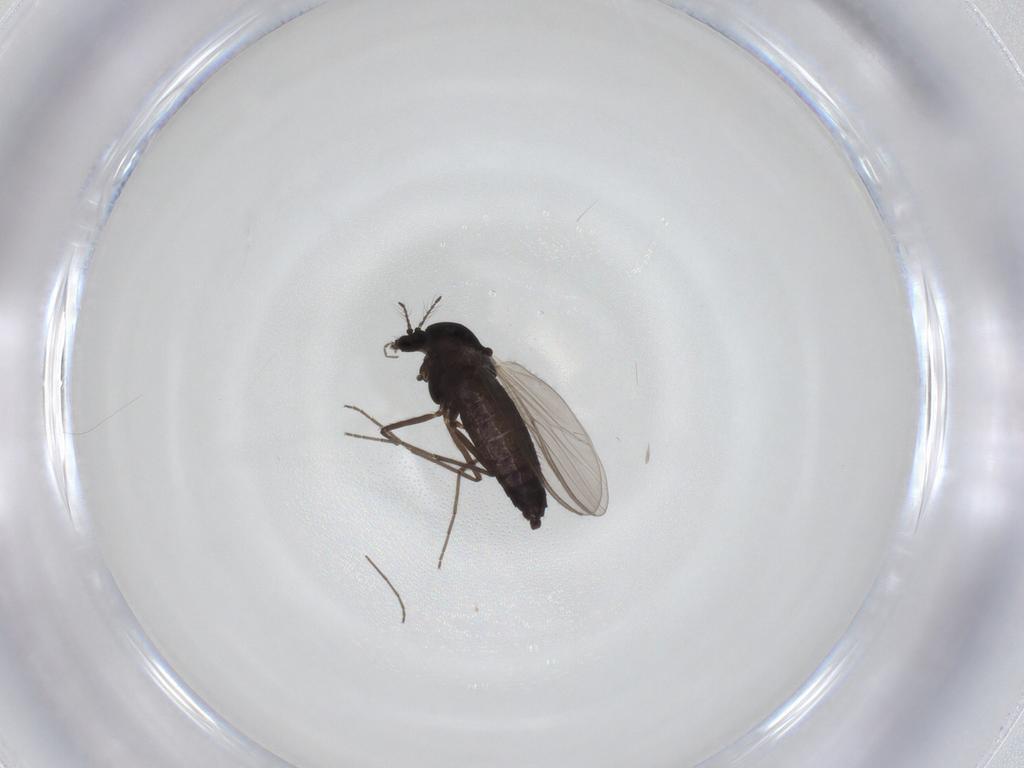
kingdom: Animalia
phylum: Arthropoda
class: Insecta
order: Diptera
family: Chironomidae
